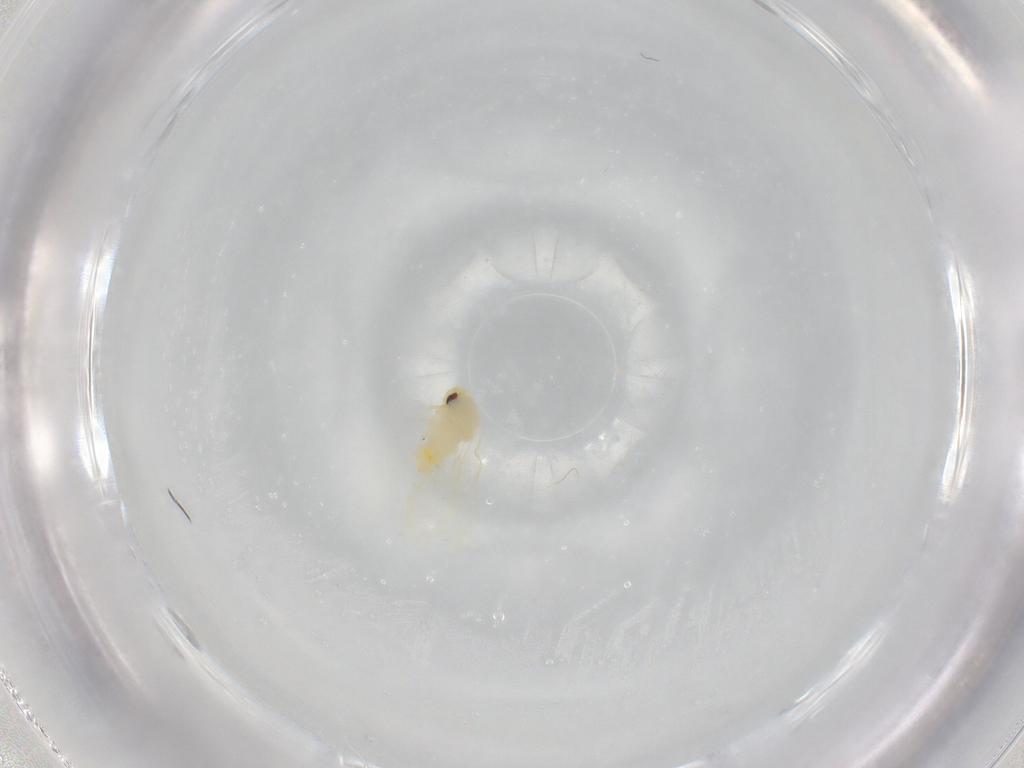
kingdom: Animalia
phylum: Arthropoda
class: Insecta
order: Hemiptera
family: Aleyrodidae
